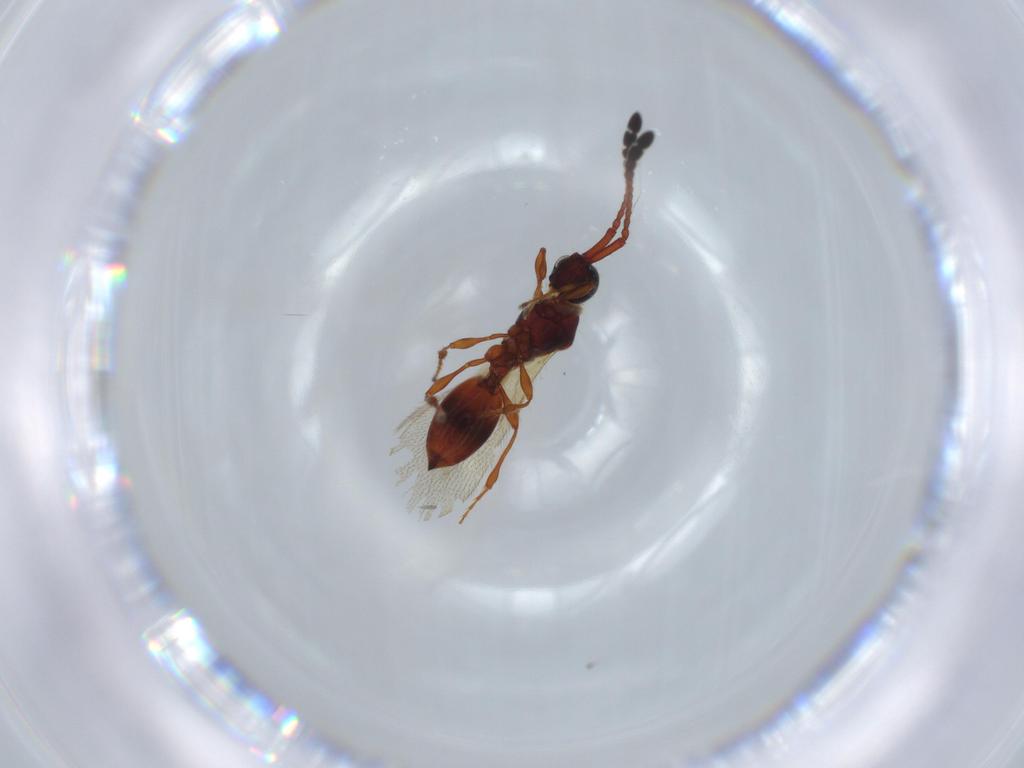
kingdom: Animalia
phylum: Arthropoda
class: Insecta
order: Hymenoptera
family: Diapriidae
